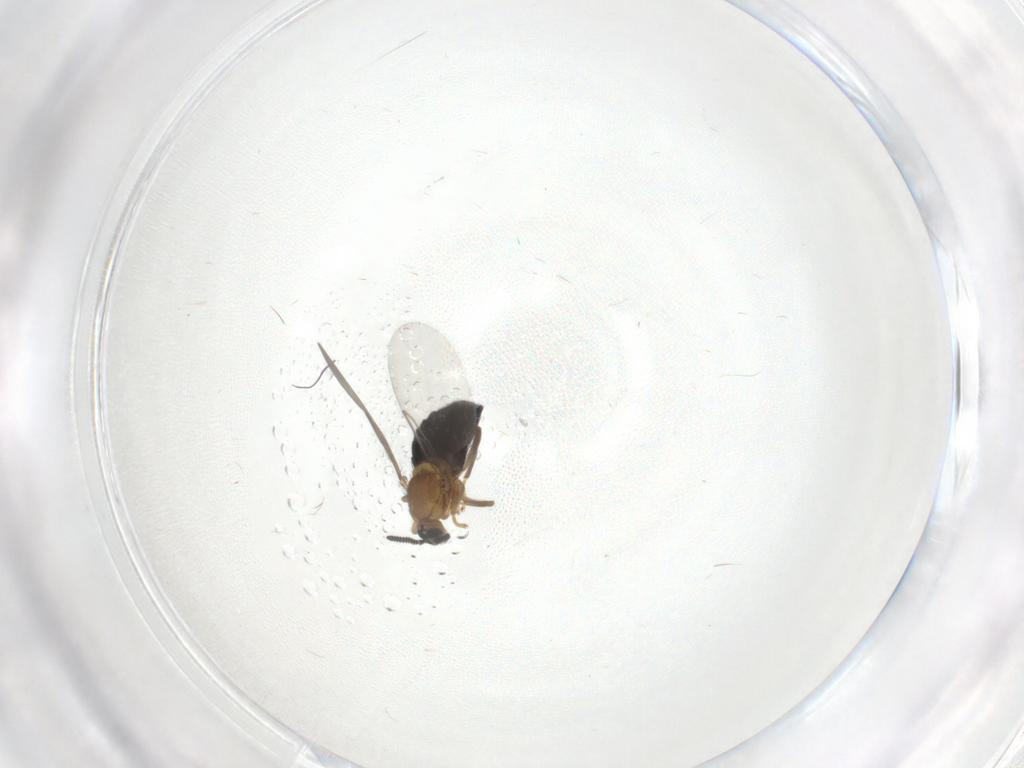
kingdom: Animalia
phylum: Arthropoda
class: Insecta
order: Diptera
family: Scatopsidae
